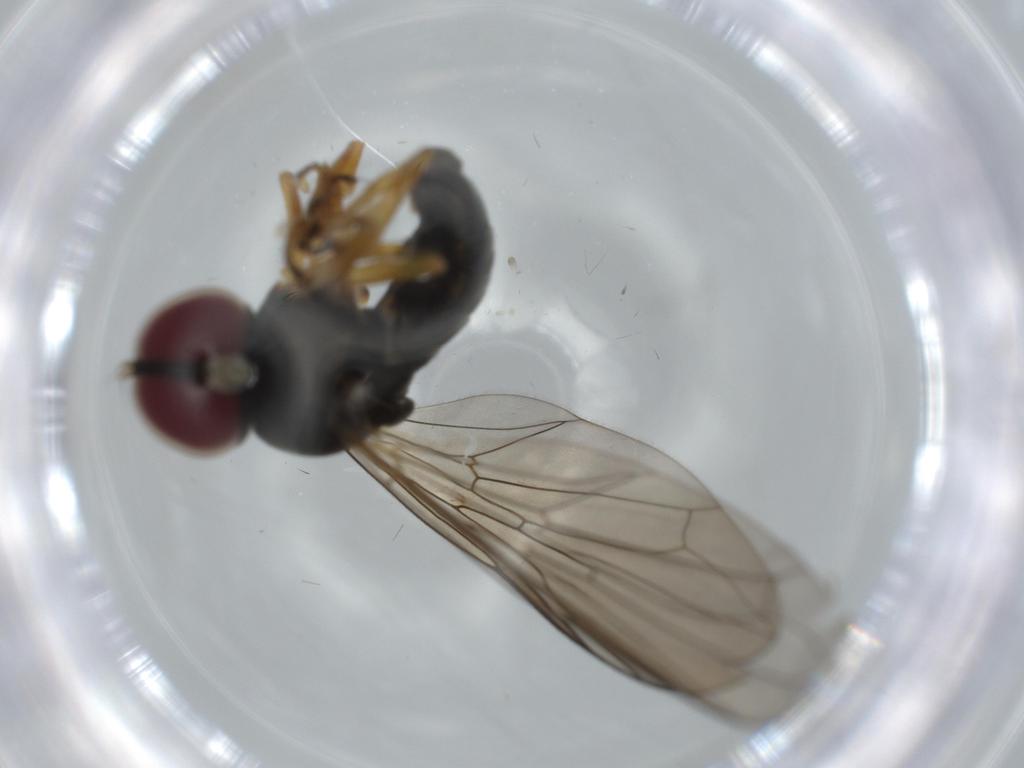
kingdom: Animalia
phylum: Arthropoda
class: Insecta
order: Diptera
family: Pipunculidae
